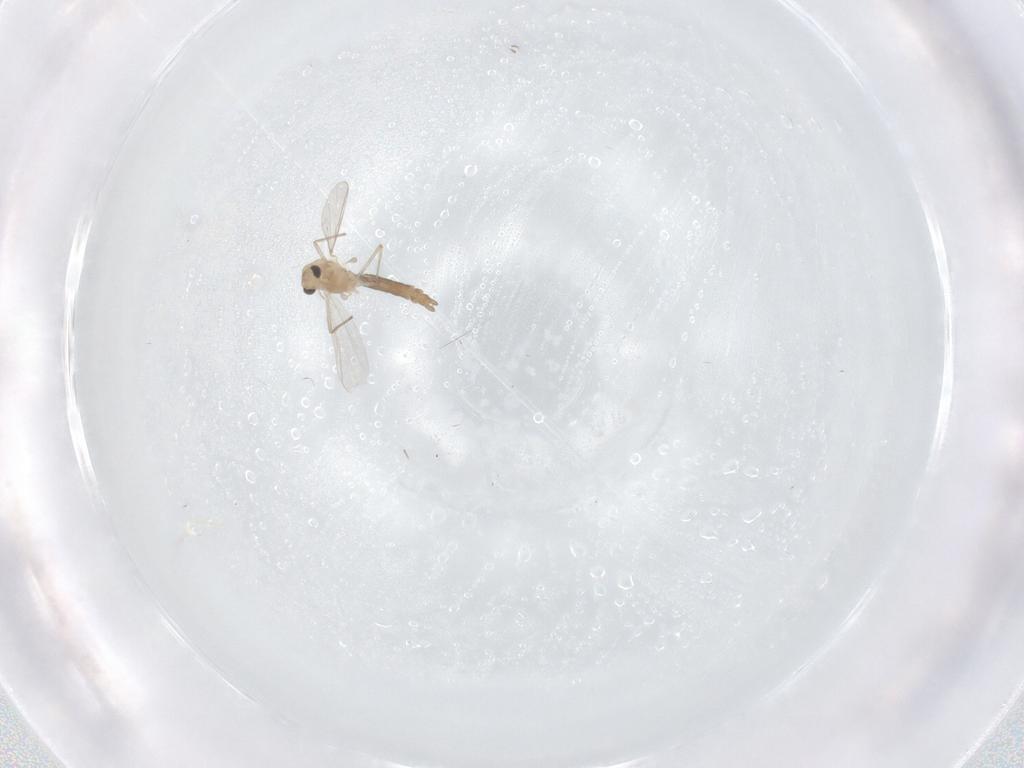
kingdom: Animalia
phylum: Arthropoda
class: Insecta
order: Diptera
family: Phoridae
